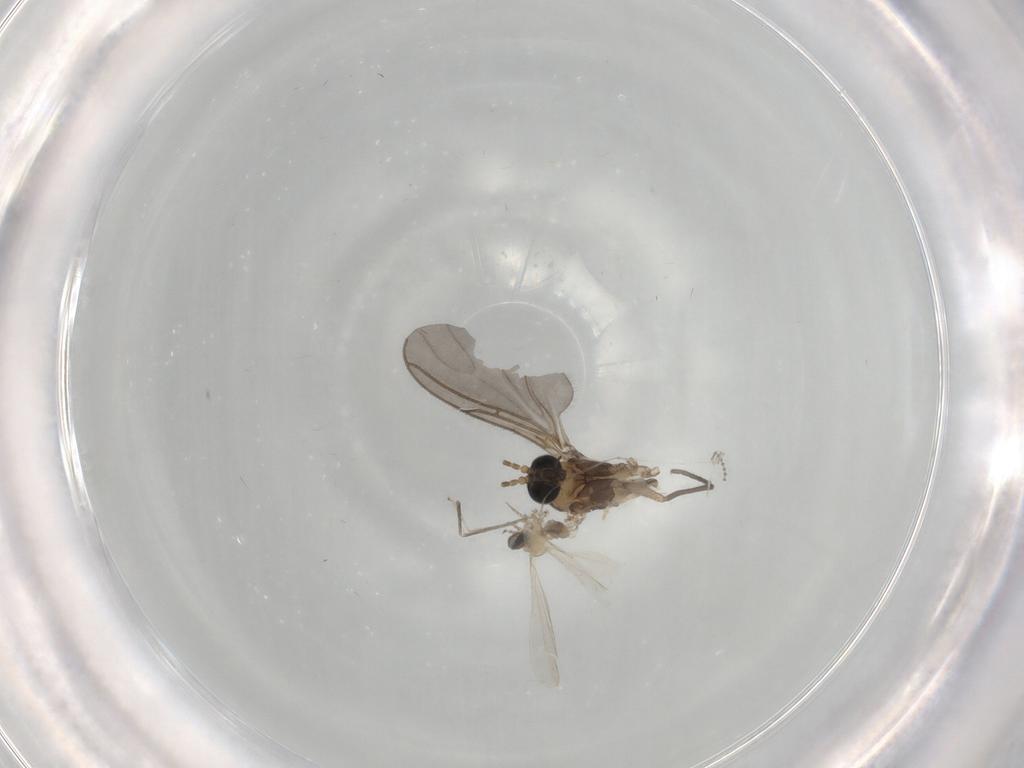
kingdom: Animalia
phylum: Arthropoda
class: Insecta
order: Diptera
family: Sciaridae
